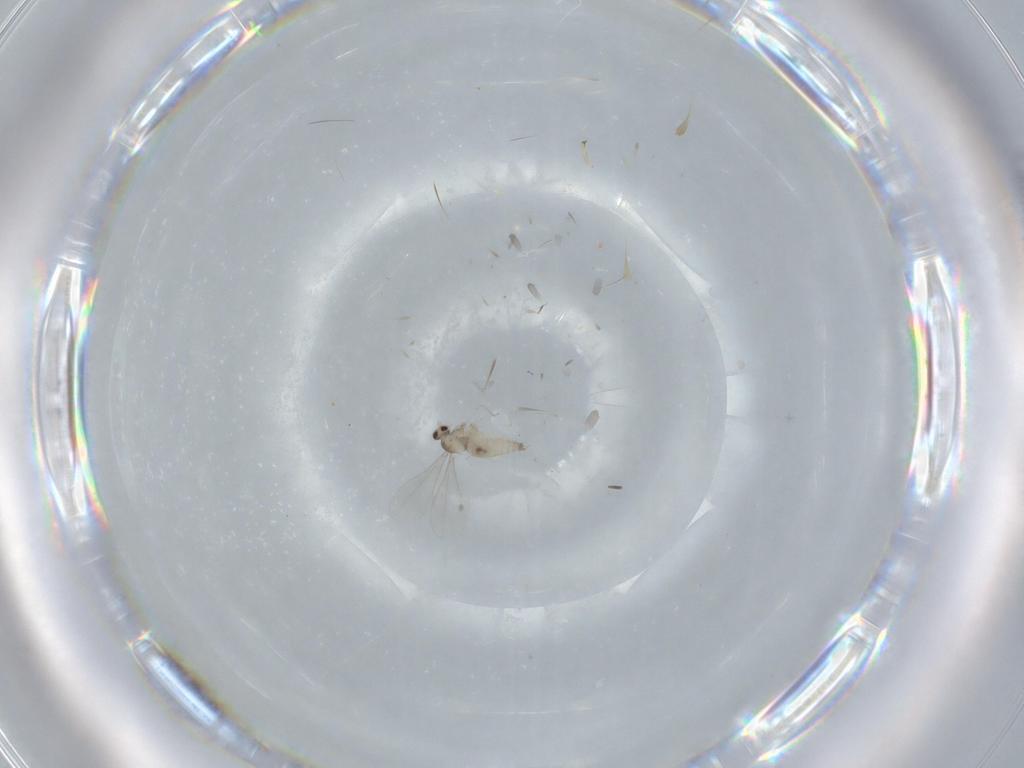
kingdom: Animalia
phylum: Arthropoda
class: Insecta
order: Diptera
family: Cecidomyiidae
